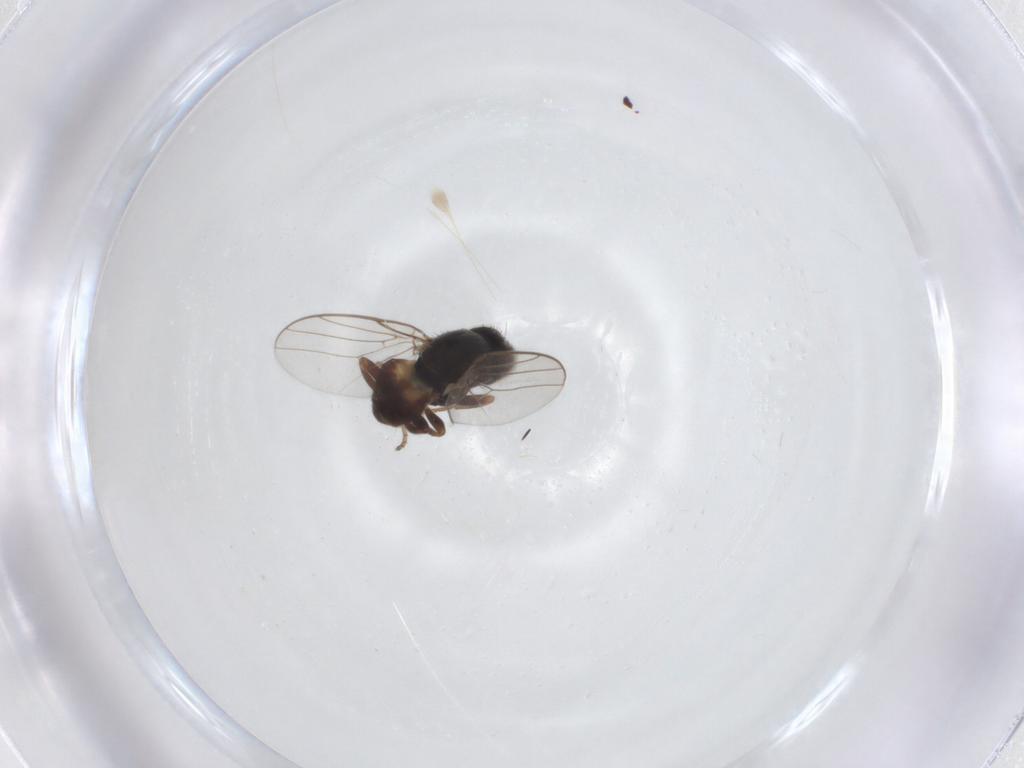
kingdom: Animalia
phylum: Arthropoda
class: Insecta
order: Diptera
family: Chloropidae
